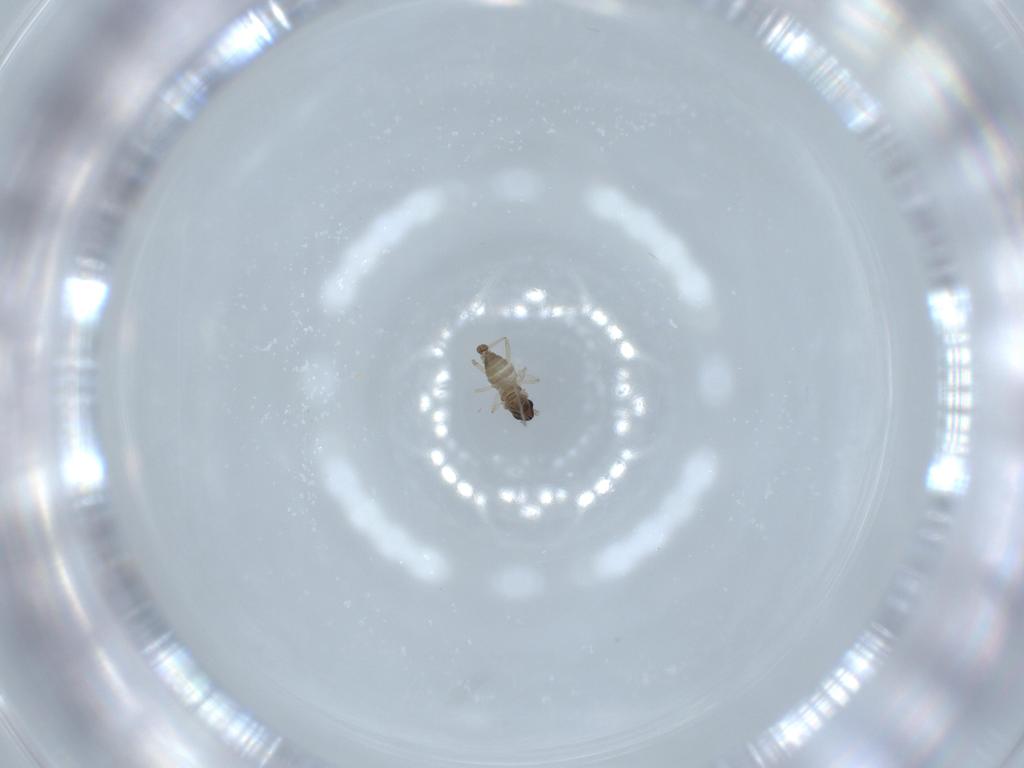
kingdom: Animalia
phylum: Arthropoda
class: Insecta
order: Diptera
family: Cecidomyiidae
